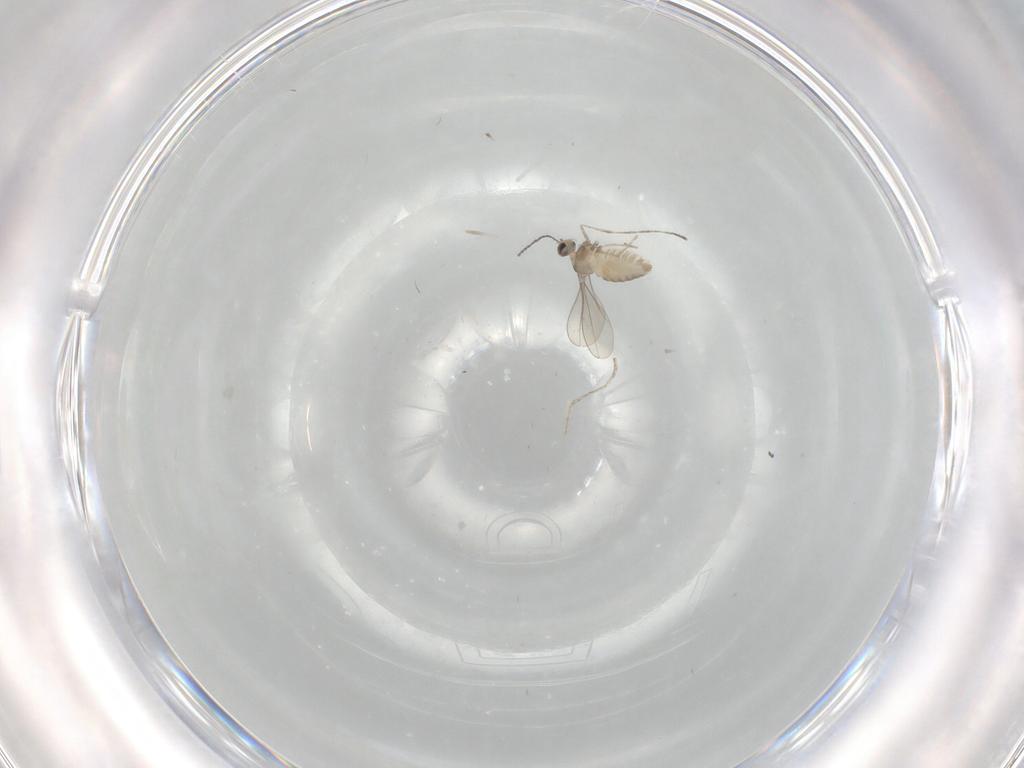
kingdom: Animalia
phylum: Arthropoda
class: Insecta
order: Diptera
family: Cecidomyiidae
